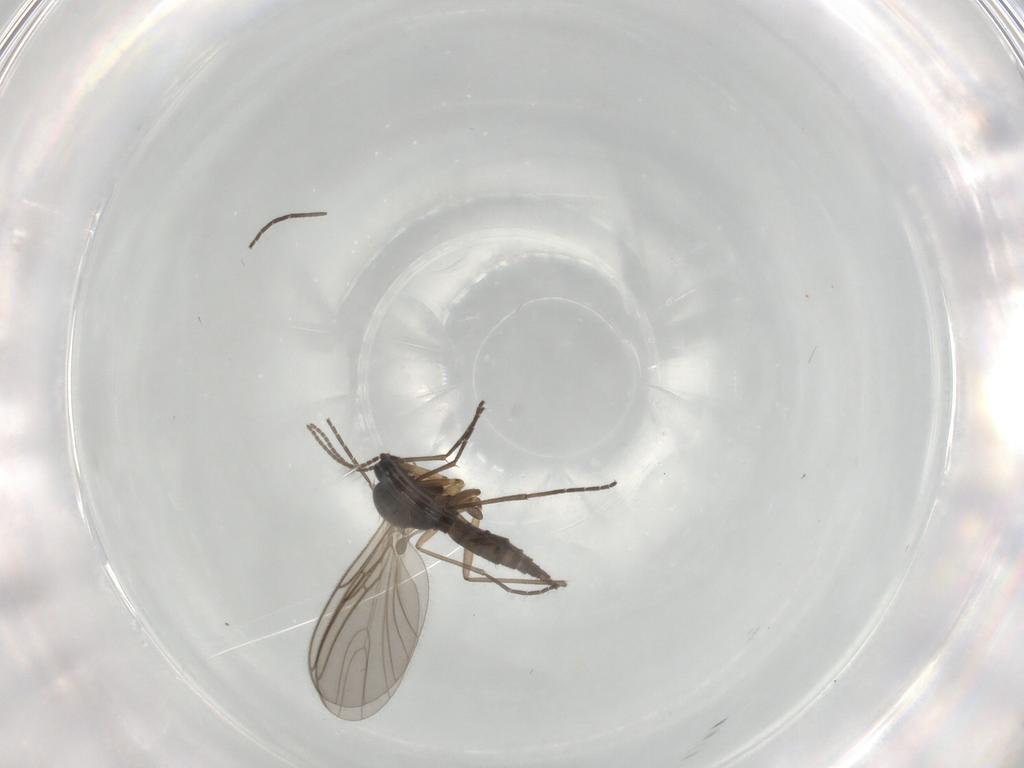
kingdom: Animalia
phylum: Arthropoda
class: Insecta
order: Diptera
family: Sciaridae
